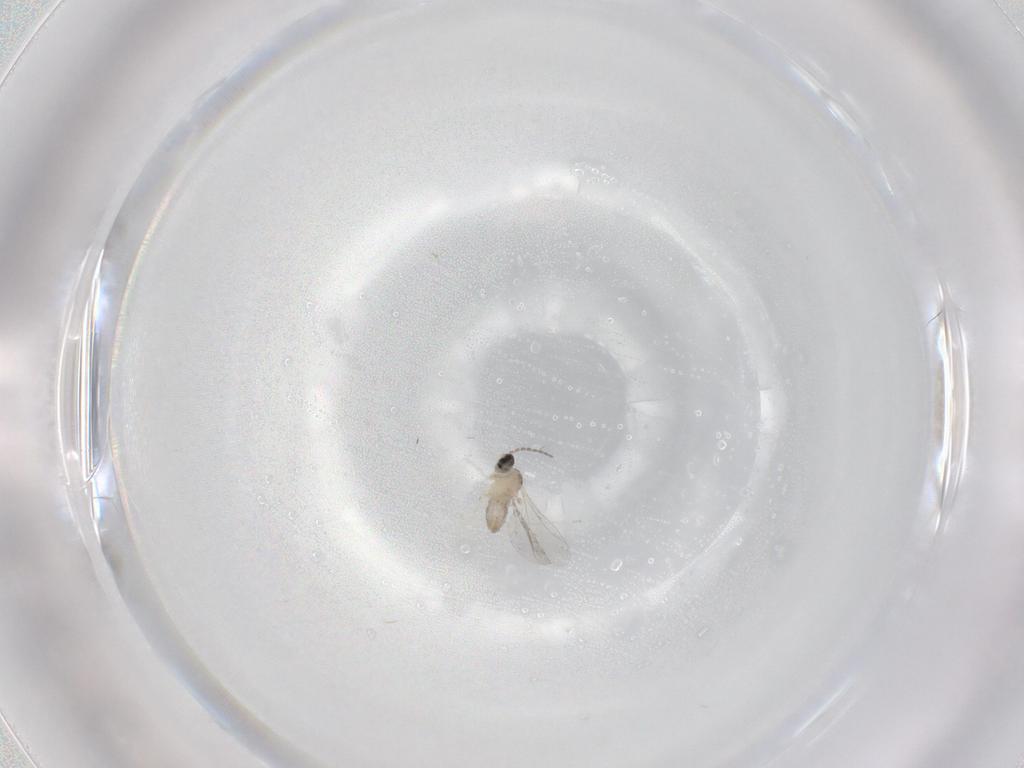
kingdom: Animalia
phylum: Arthropoda
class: Insecta
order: Diptera
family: Cecidomyiidae
